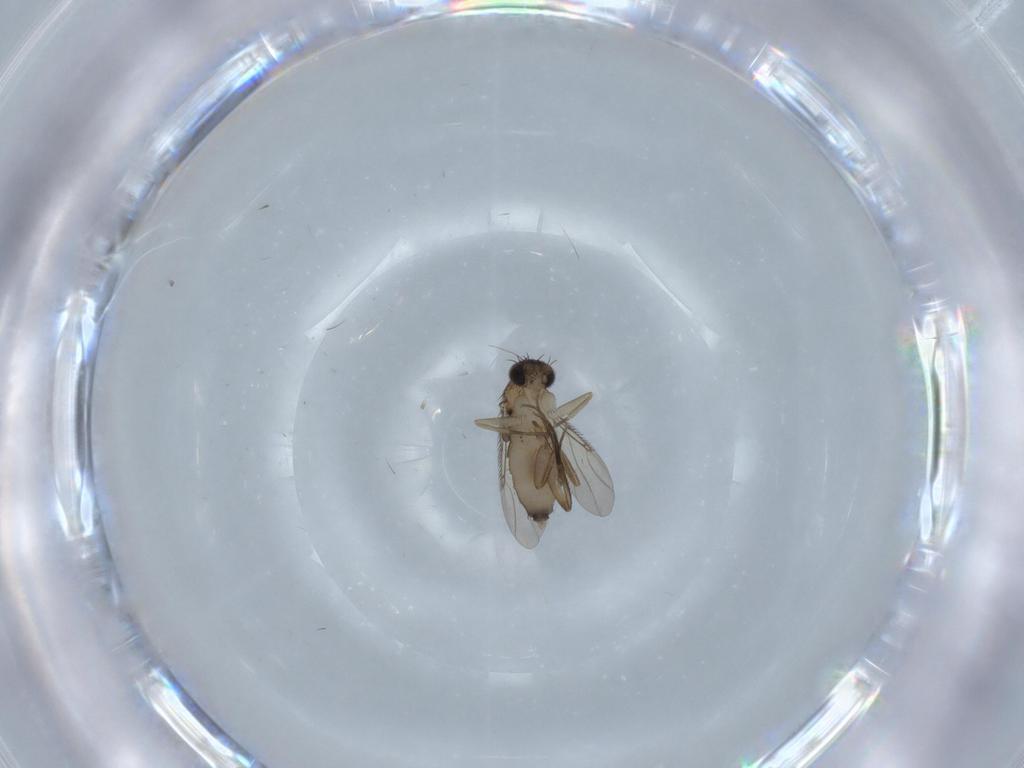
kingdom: Animalia
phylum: Arthropoda
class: Insecta
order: Diptera
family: Phoridae
